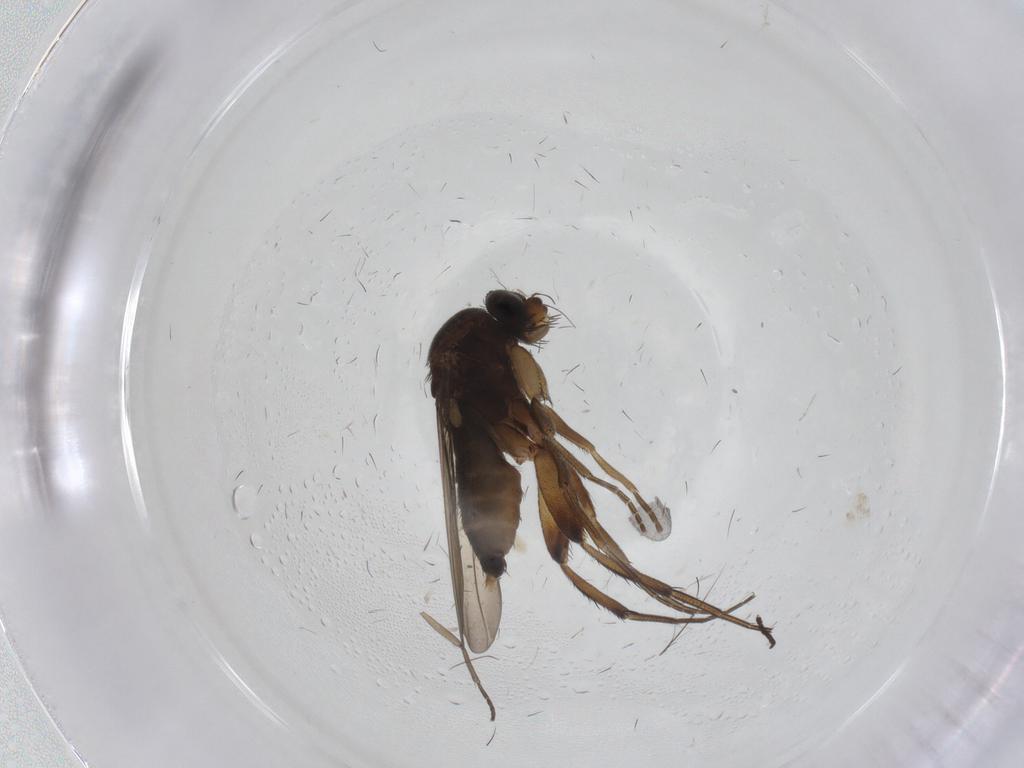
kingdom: Animalia
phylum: Arthropoda
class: Insecta
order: Diptera
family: Phoridae
